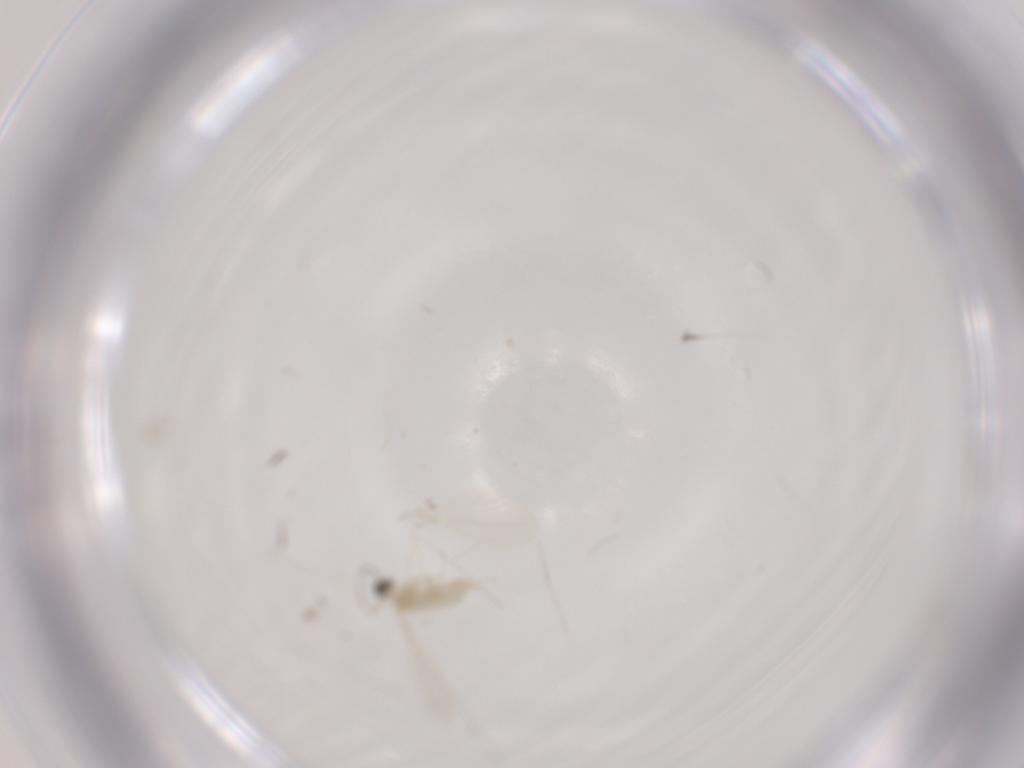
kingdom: Animalia
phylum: Arthropoda
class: Insecta
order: Diptera
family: Cecidomyiidae
